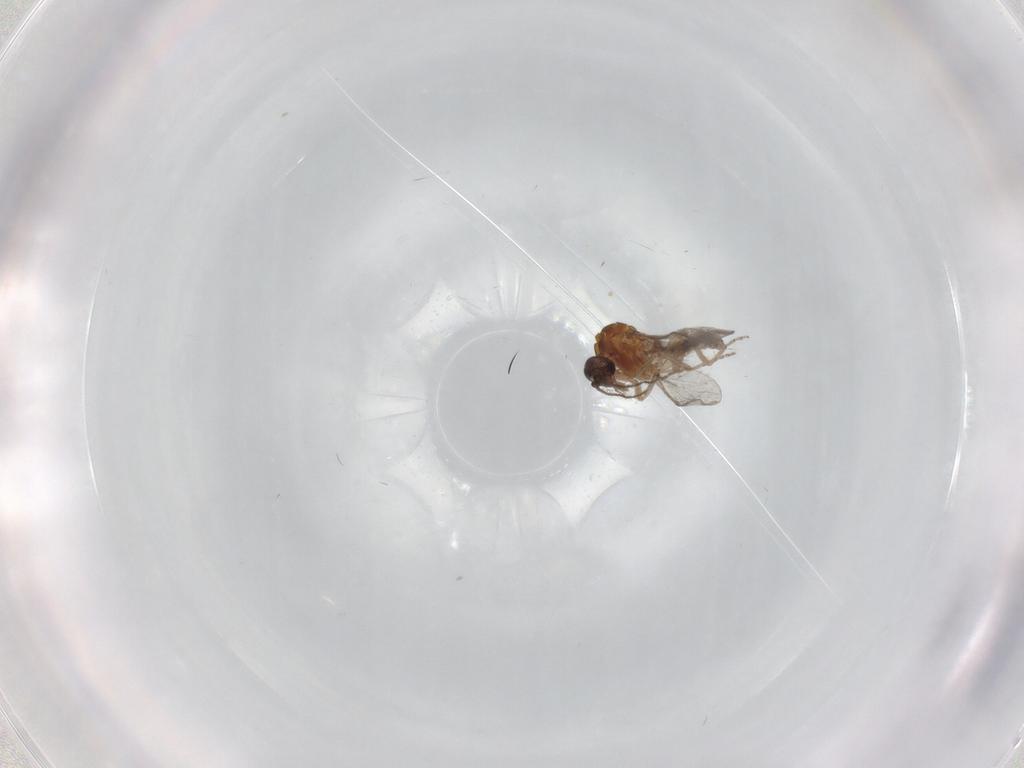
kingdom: Animalia
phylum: Arthropoda
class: Insecta
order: Diptera
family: Ceratopogonidae
